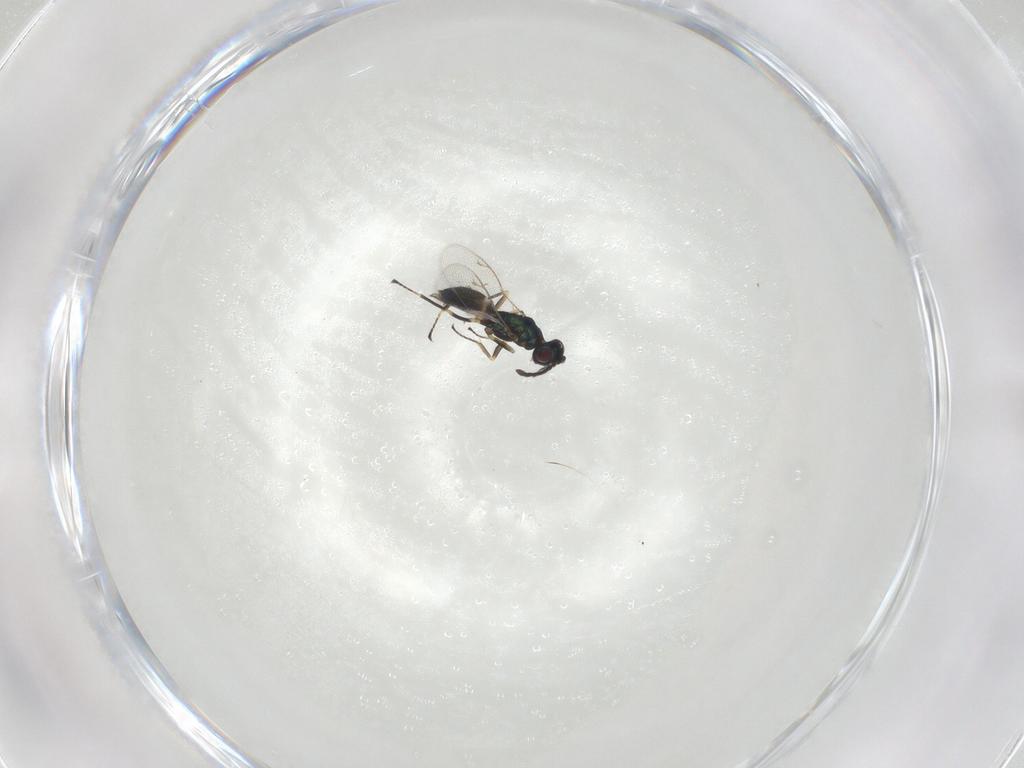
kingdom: Animalia
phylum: Arthropoda
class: Insecta
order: Hymenoptera
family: Eupelmidae
